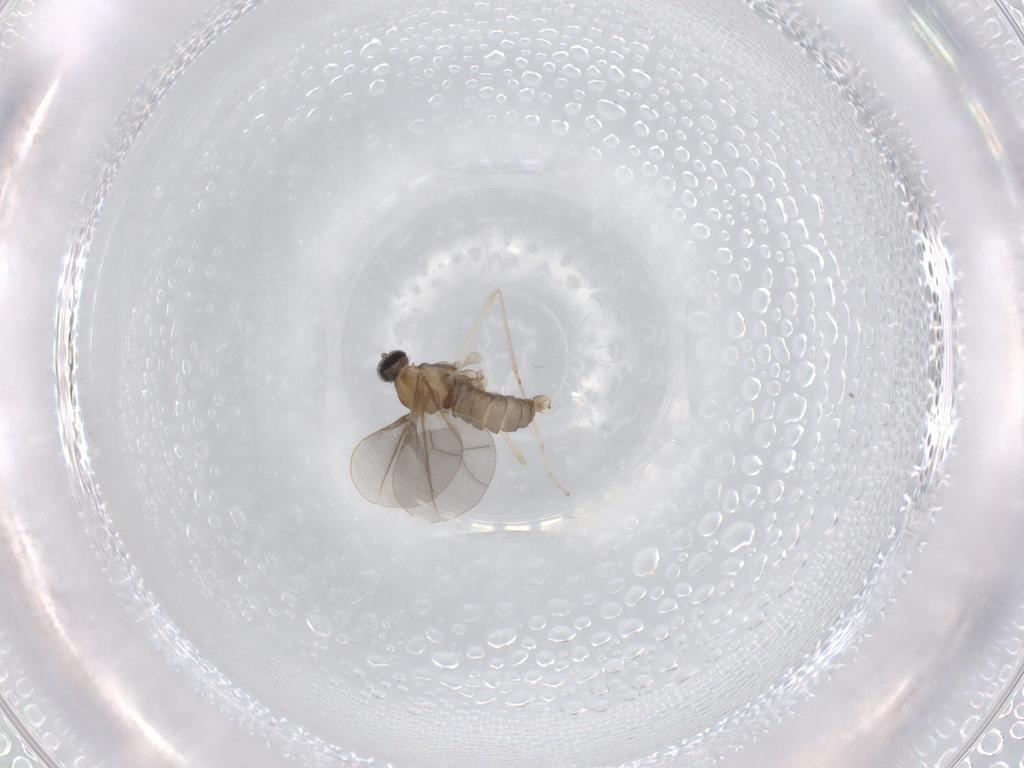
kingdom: Animalia
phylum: Arthropoda
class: Insecta
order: Diptera
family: Cecidomyiidae
